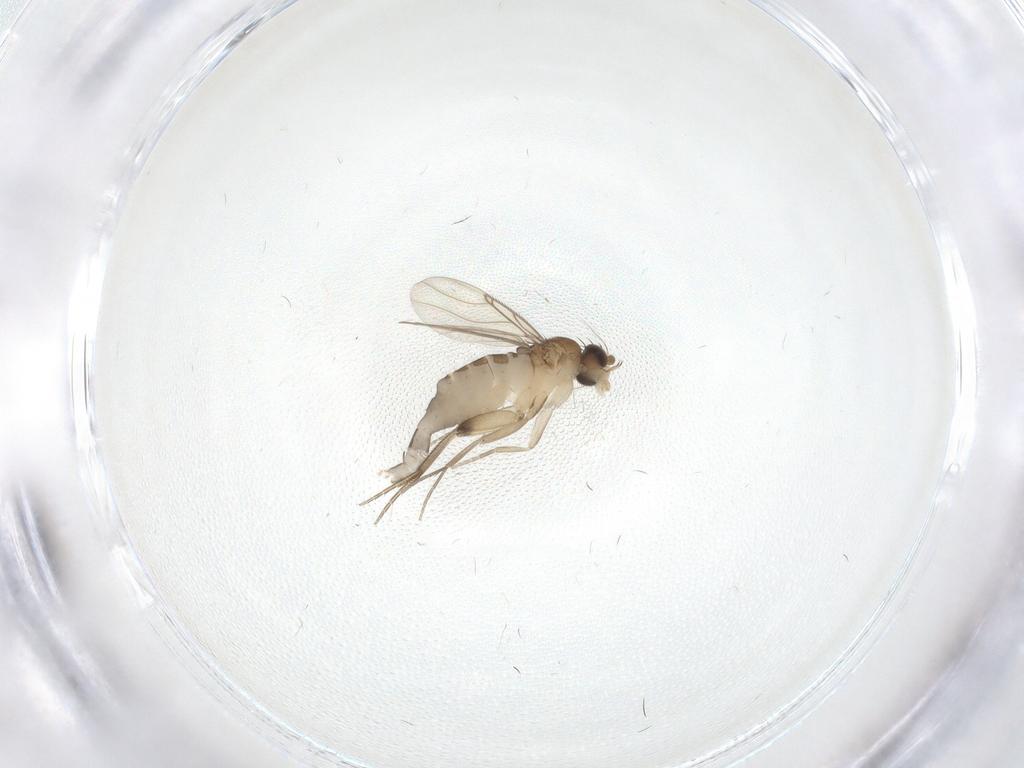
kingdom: Animalia
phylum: Arthropoda
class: Insecta
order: Diptera
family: Phoridae
